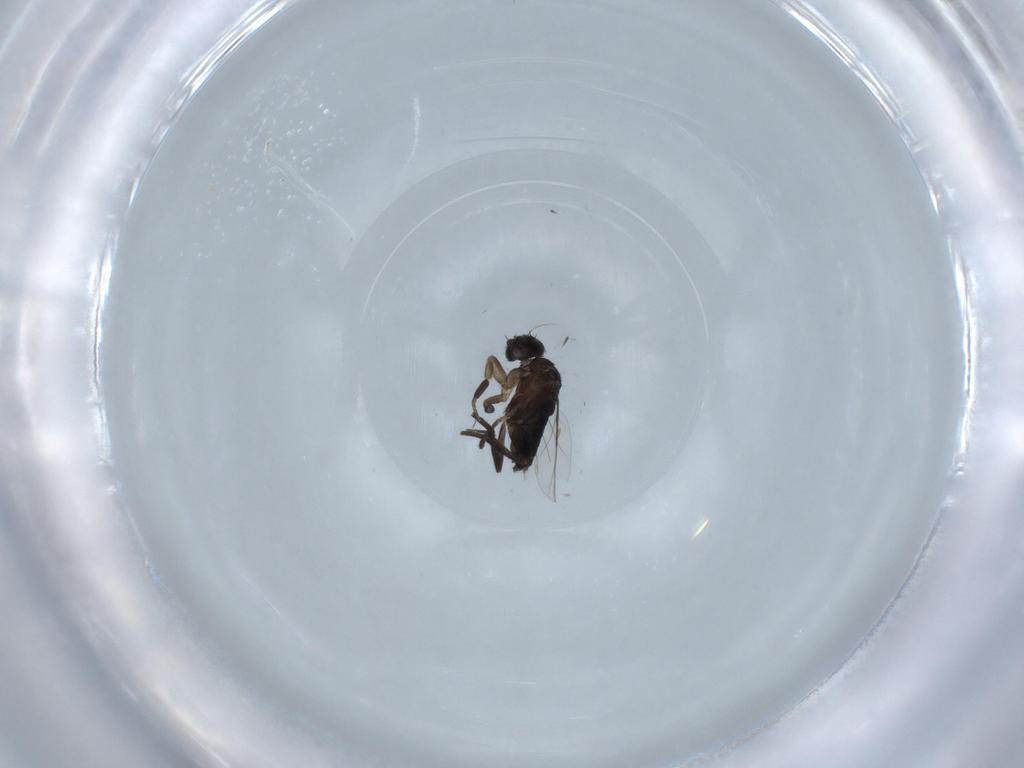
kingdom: Animalia
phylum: Arthropoda
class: Insecta
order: Diptera
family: Phoridae
